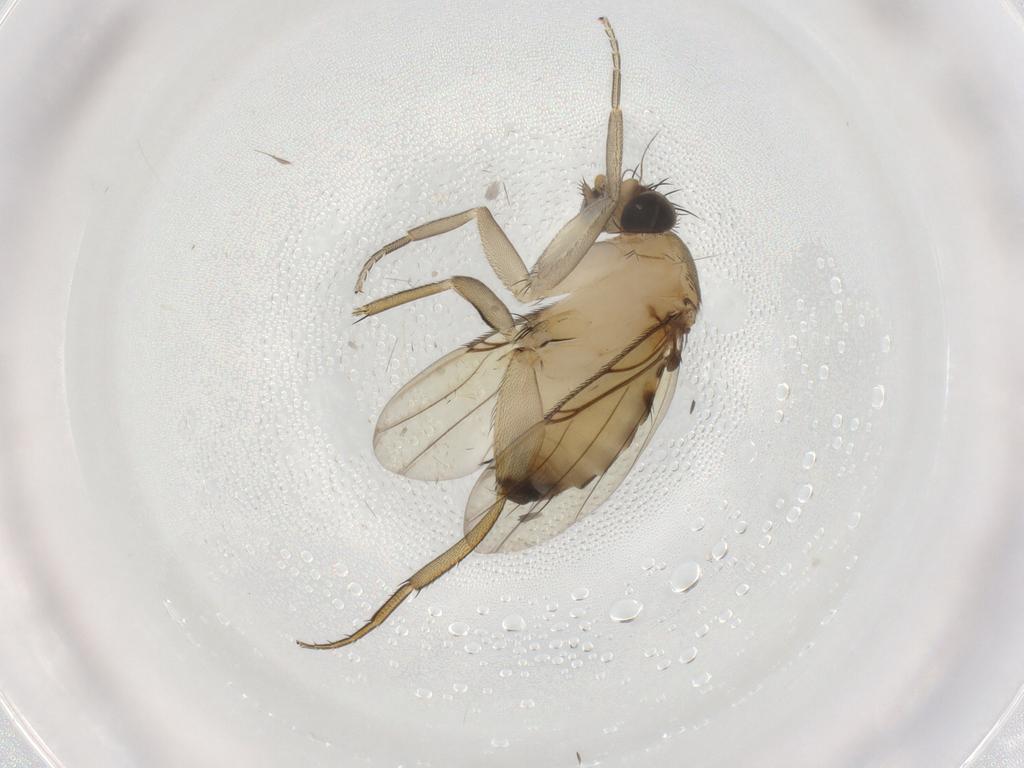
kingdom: Animalia
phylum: Arthropoda
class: Insecta
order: Diptera
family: Phoridae
